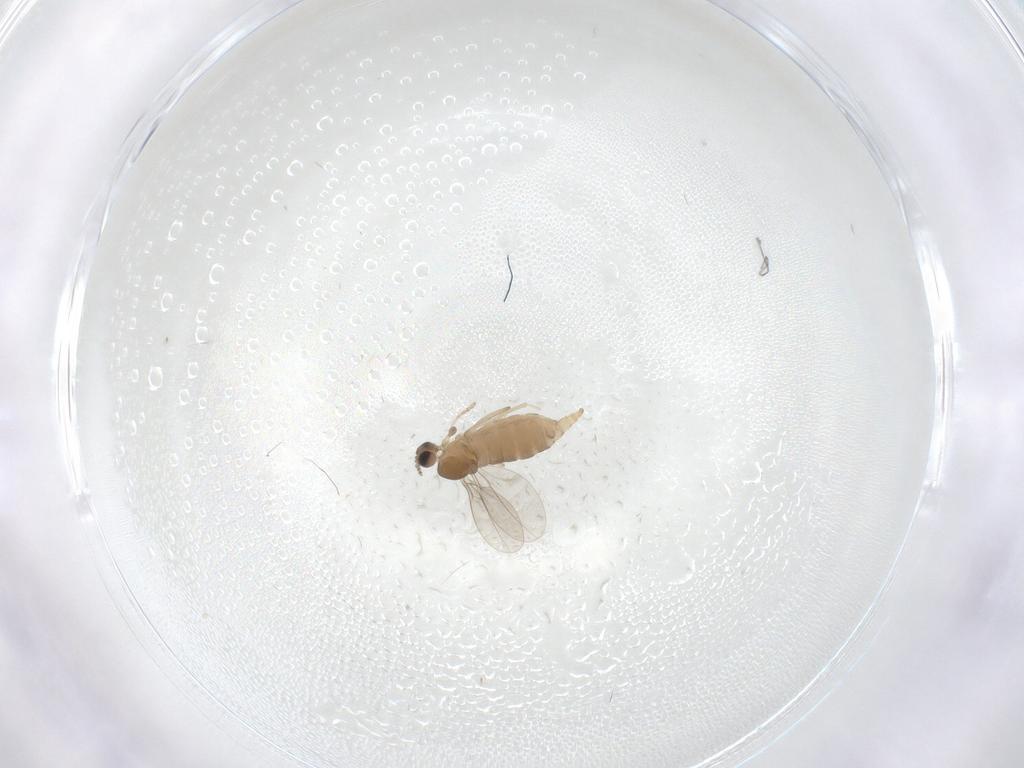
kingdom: Animalia
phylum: Arthropoda
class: Insecta
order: Diptera
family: Cecidomyiidae
